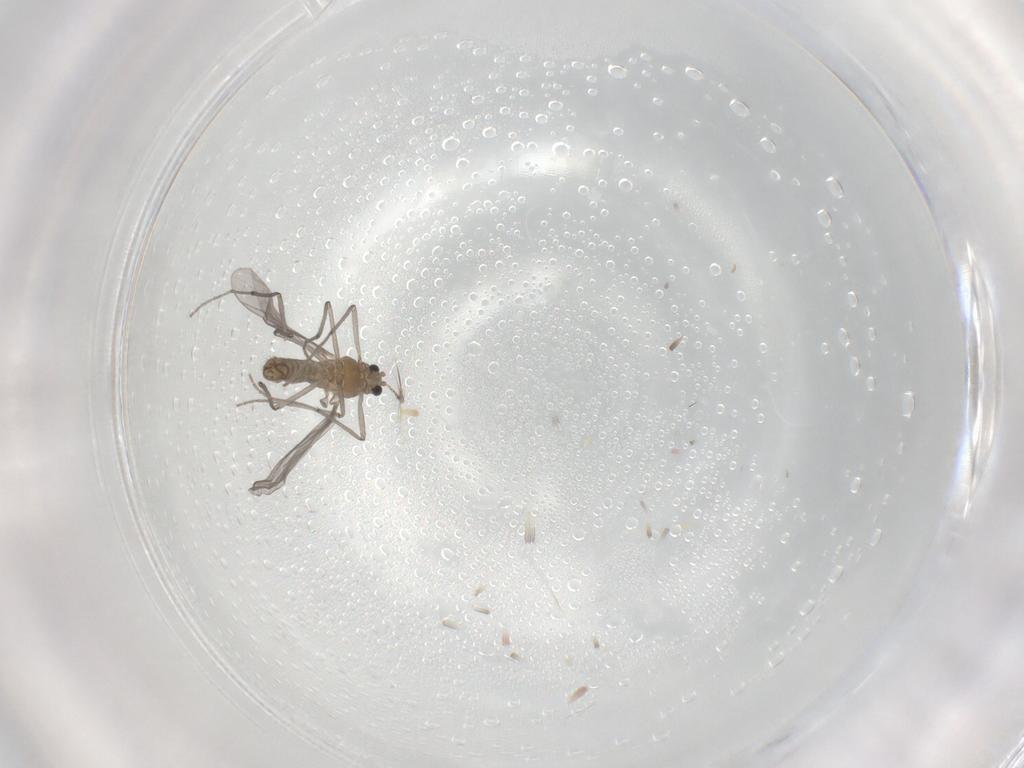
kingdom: Animalia
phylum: Arthropoda
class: Insecta
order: Diptera
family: Chironomidae
